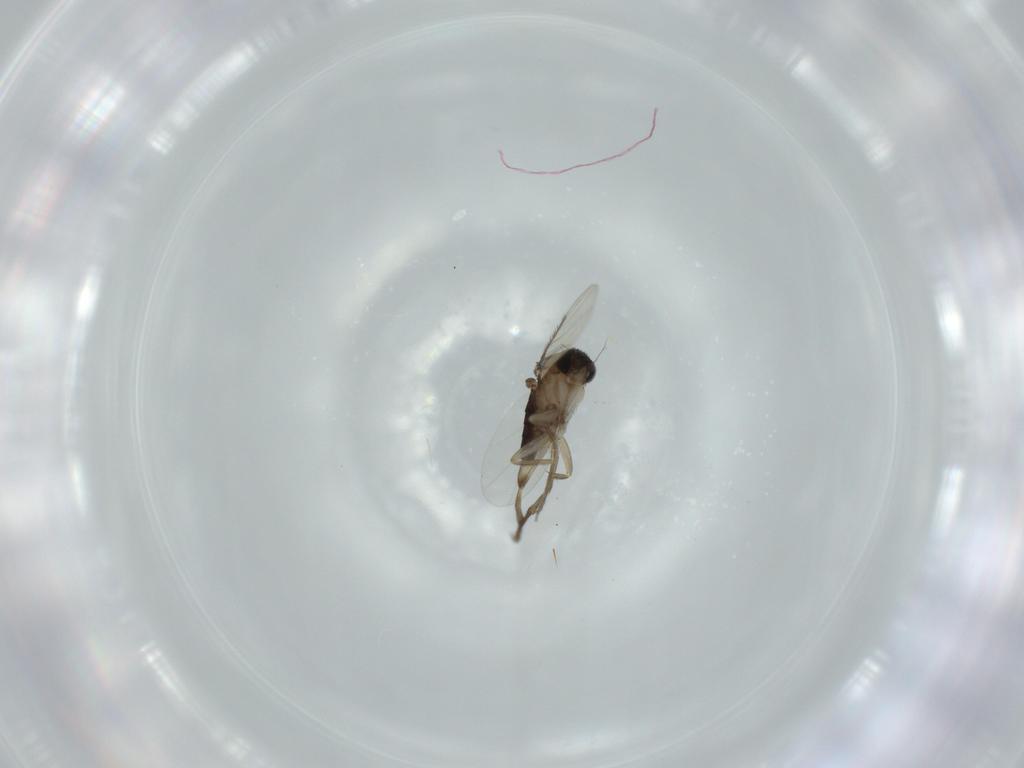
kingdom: Animalia
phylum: Arthropoda
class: Insecta
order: Diptera
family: Phoridae
